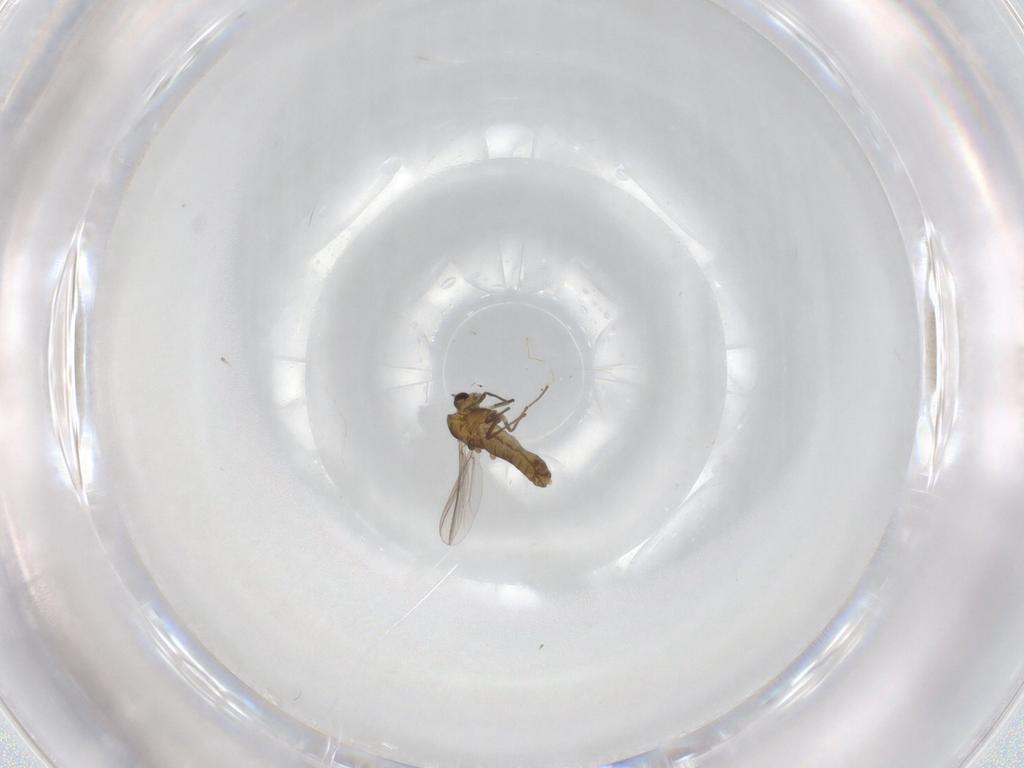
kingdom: Animalia
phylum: Arthropoda
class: Insecta
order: Diptera
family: Chironomidae
